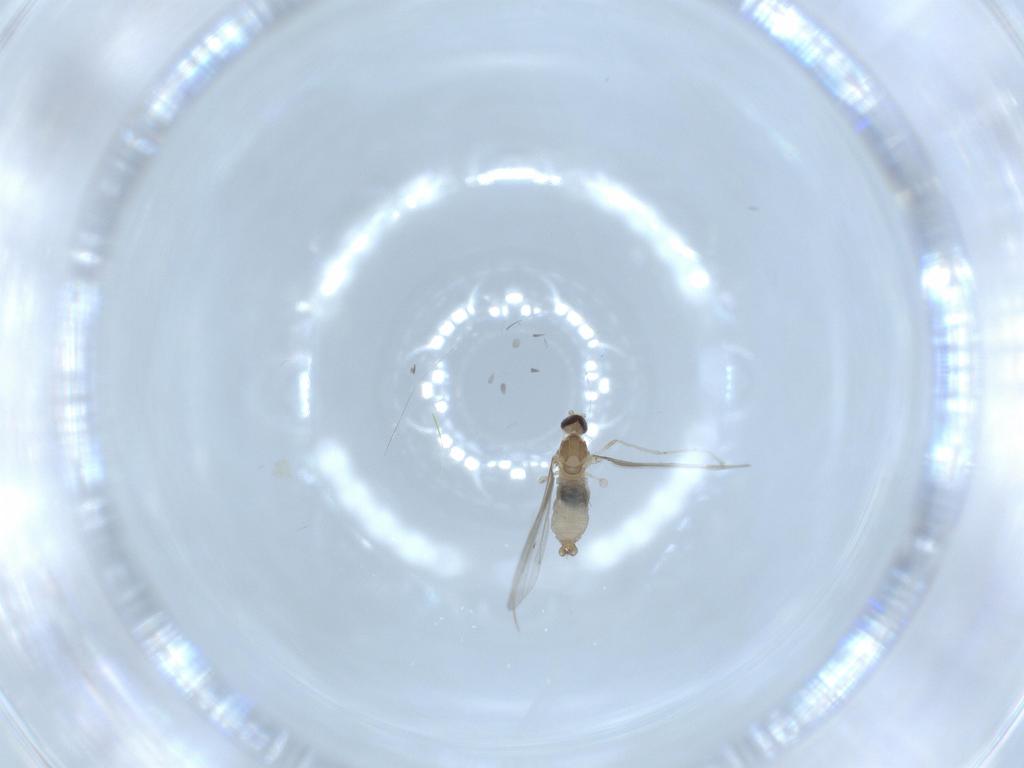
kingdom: Animalia
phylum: Arthropoda
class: Insecta
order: Diptera
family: Cecidomyiidae
